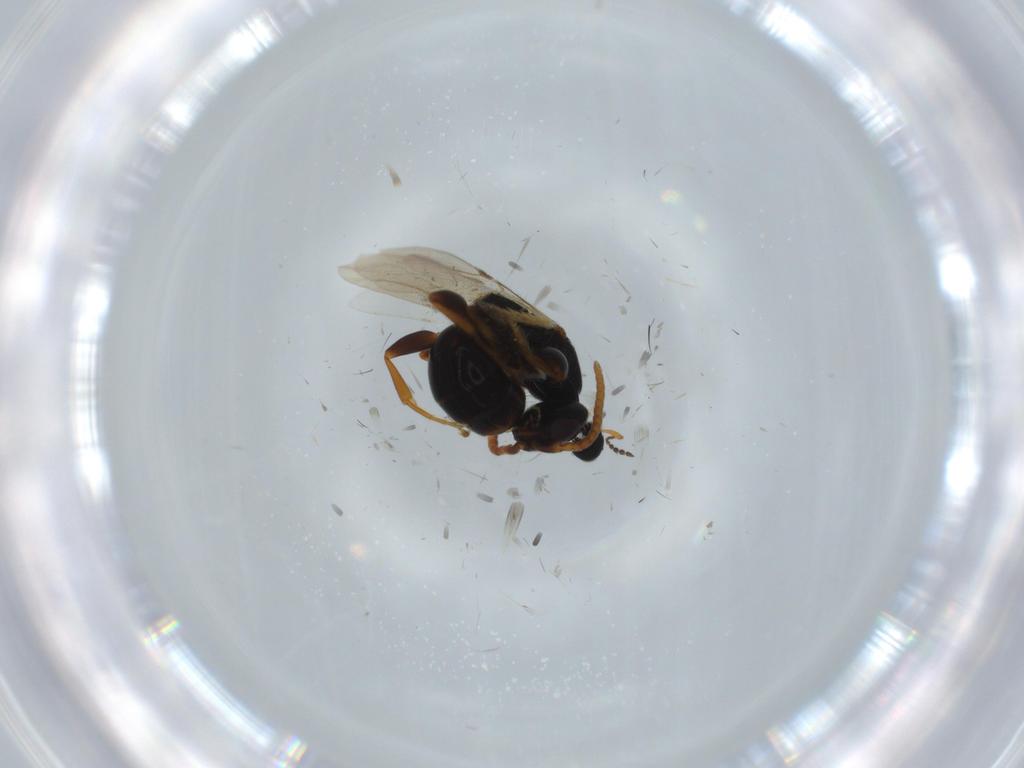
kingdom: Animalia
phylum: Arthropoda
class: Insecta
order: Hymenoptera
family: Bethylidae
